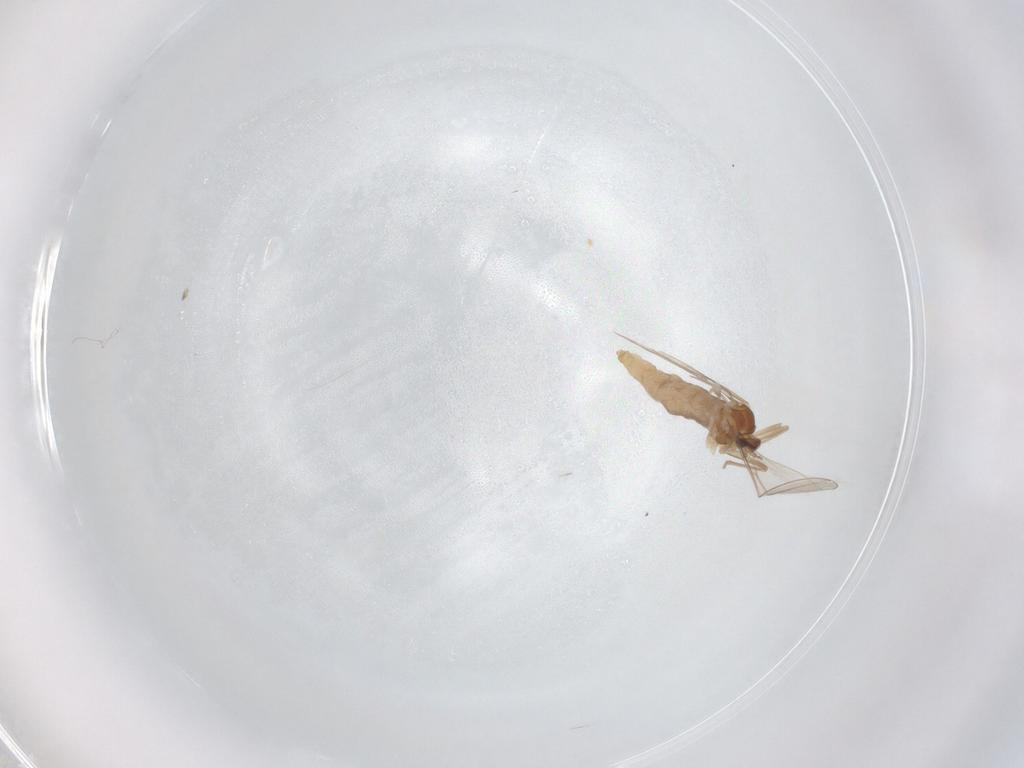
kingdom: Animalia
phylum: Arthropoda
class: Insecta
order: Diptera
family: Cecidomyiidae
